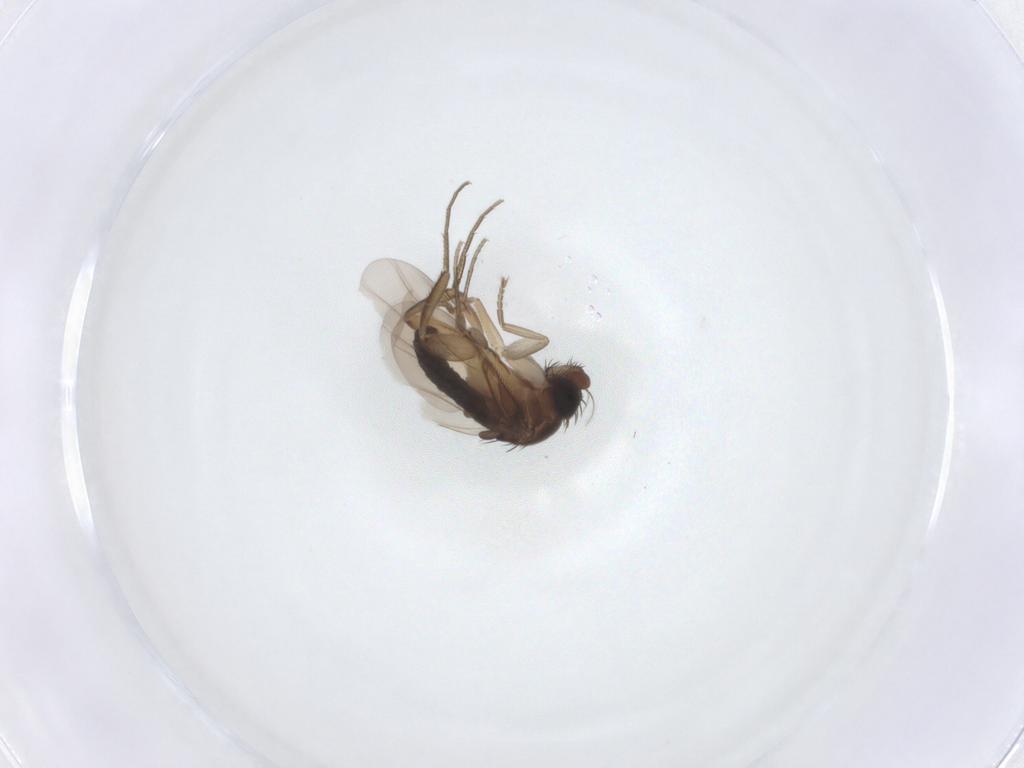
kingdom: Animalia
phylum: Arthropoda
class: Insecta
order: Diptera
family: Phoridae
